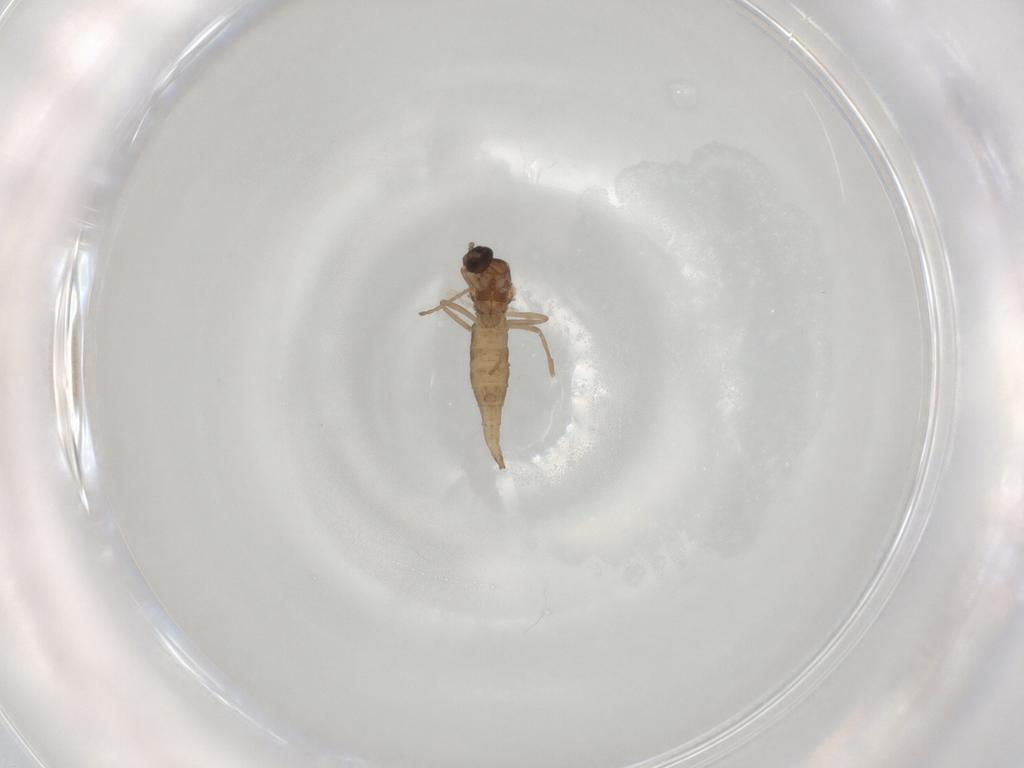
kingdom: Animalia
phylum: Arthropoda
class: Insecta
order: Diptera
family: Cecidomyiidae
